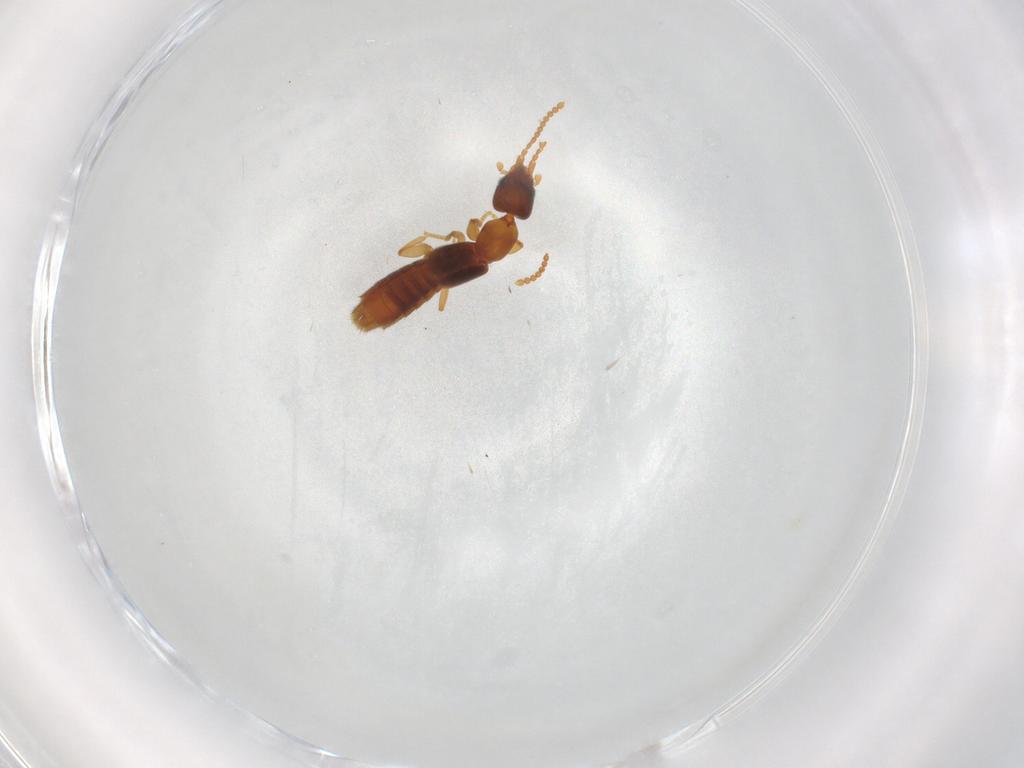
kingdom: Animalia
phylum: Arthropoda
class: Insecta
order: Coleoptera
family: Staphylinidae
